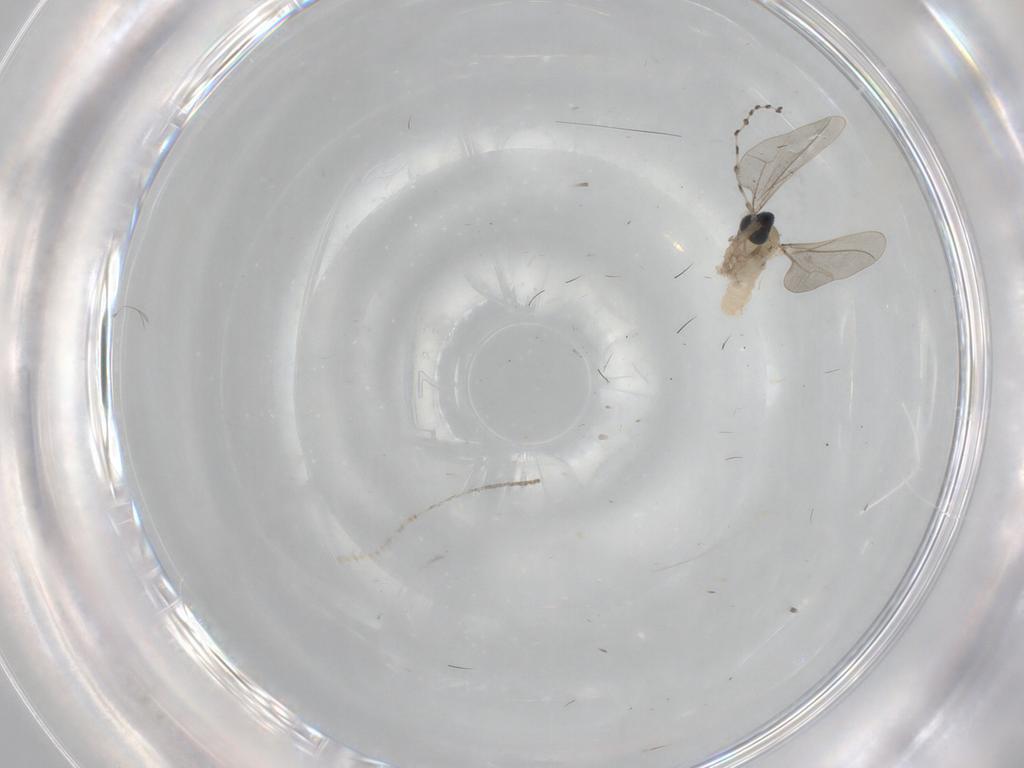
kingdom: Animalia
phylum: Arthropoda
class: Insecta
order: Diptera
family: Cecidomyiidae
